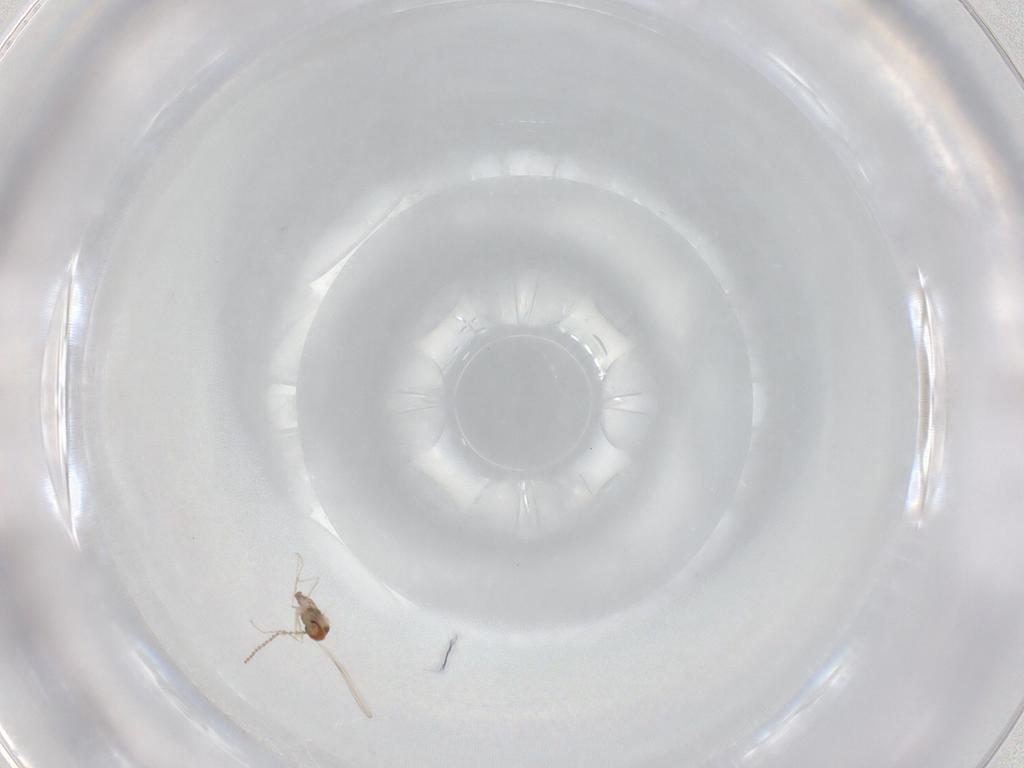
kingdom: Animalia
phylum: Arthropoda
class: Insecta
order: Diptera
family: Cecidomyiidae
